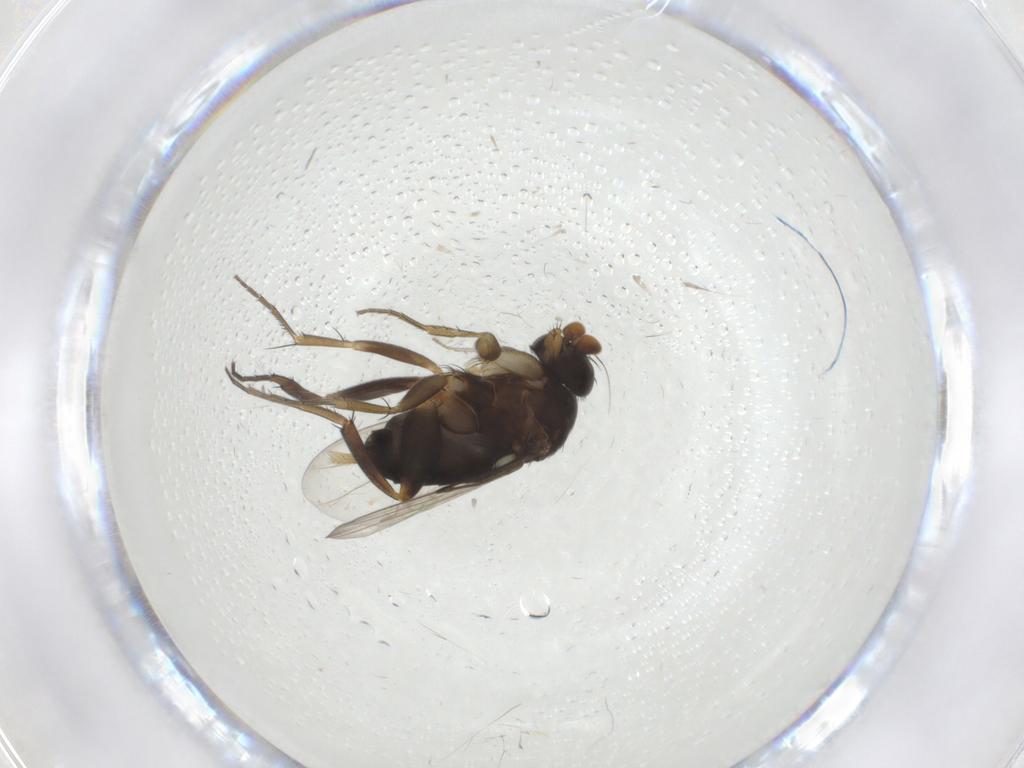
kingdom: Animalia
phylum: Arthropoda
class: Insecta
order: Diptera
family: Phoridae
